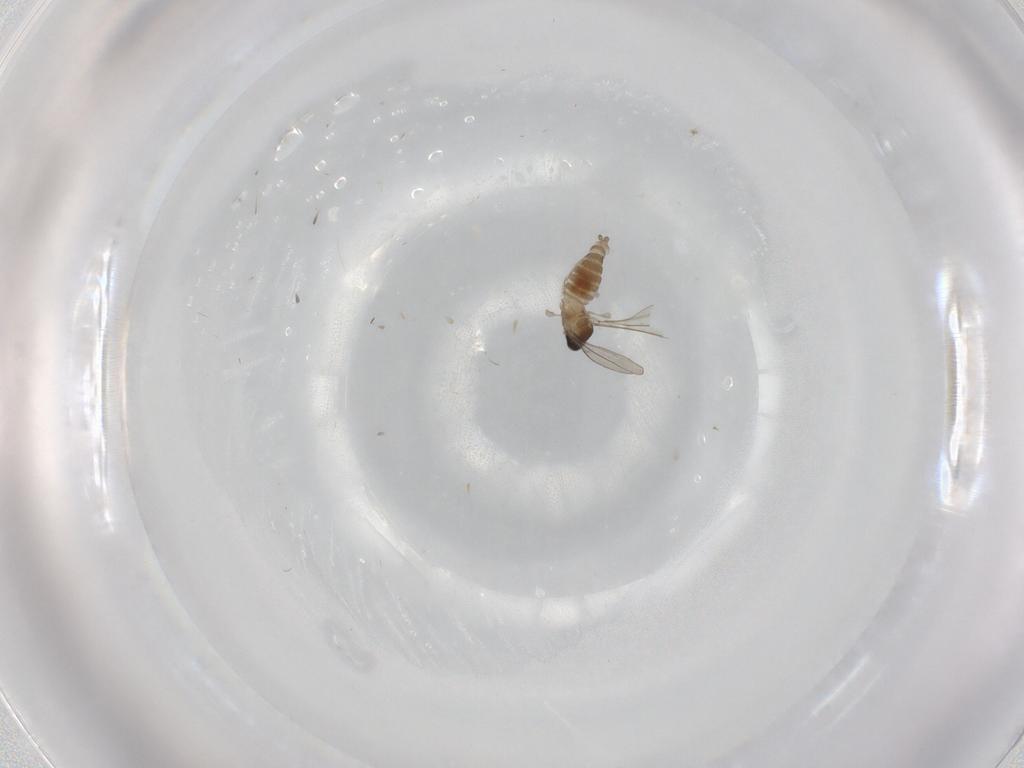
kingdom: Animalia
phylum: Arthropoda
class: Insecta
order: Diptera
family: Cecidomyiidae
